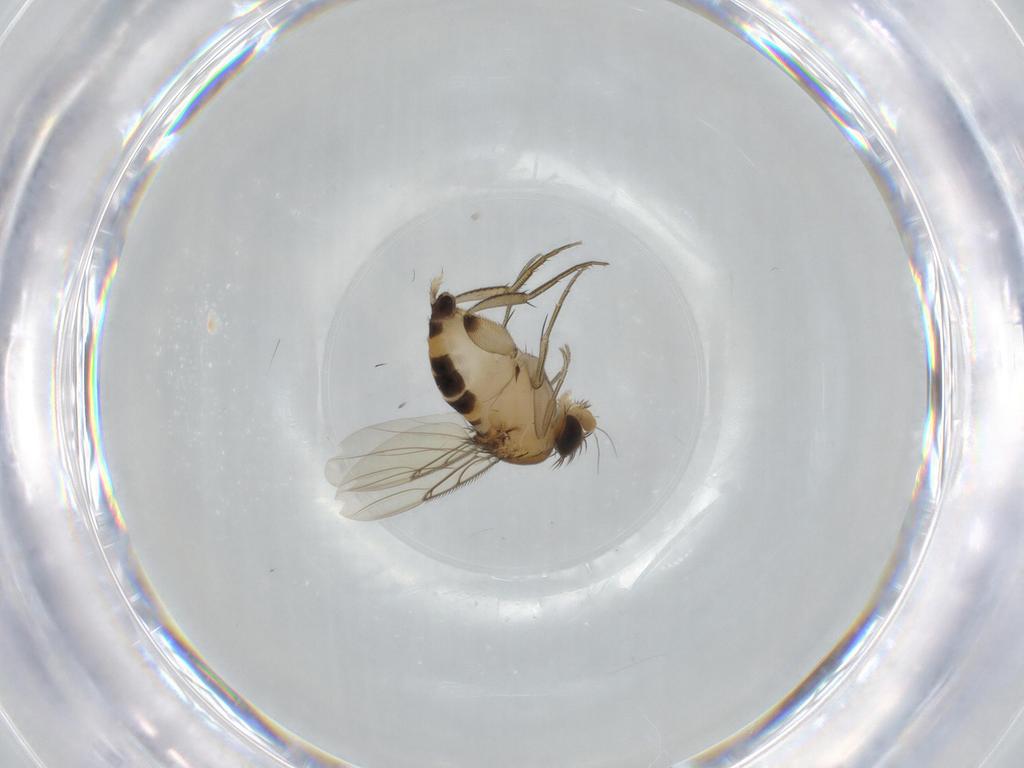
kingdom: Animalia
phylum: Arthropoda
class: Insecta
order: Diptera
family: Phoridae
